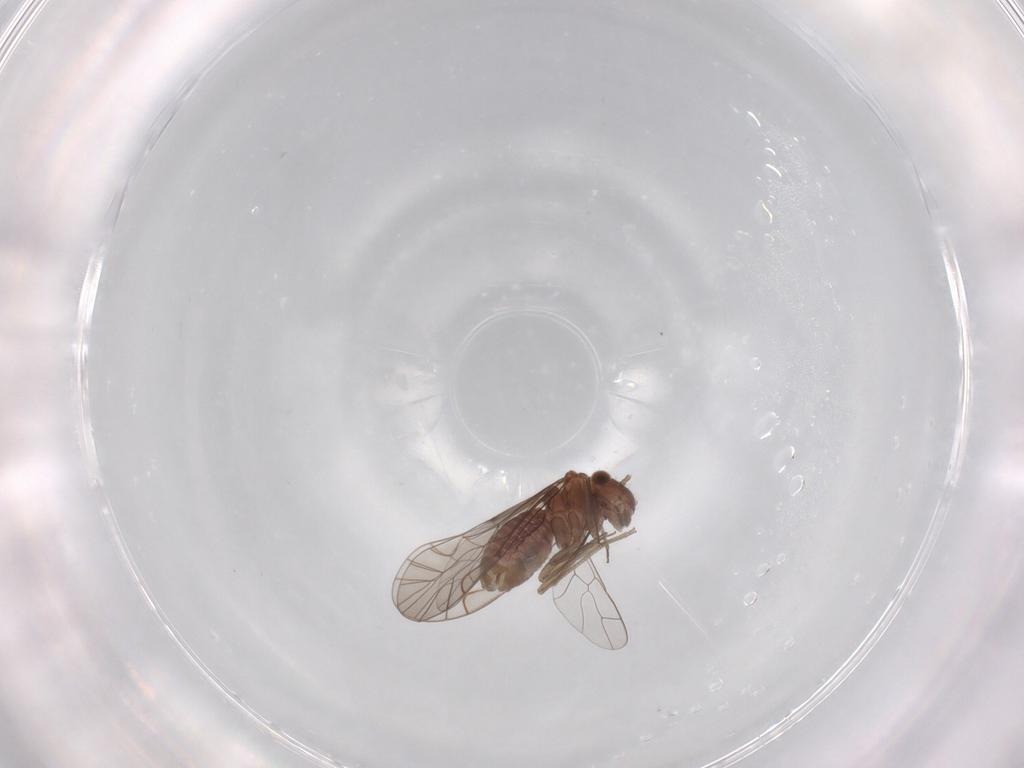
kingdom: Animalia
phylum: Arthropoda
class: Insecta
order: Psocodea
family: Lachesillidae
